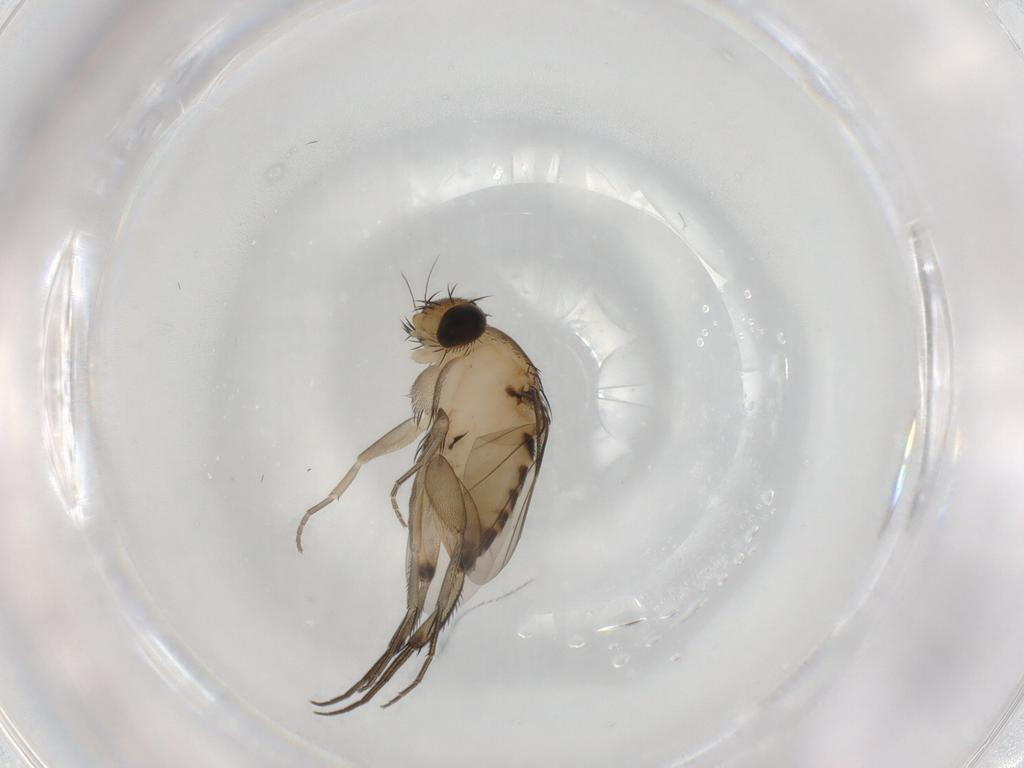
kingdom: Animalia
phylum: Arthropoda
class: Insecta
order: Diptera
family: Phoridae
